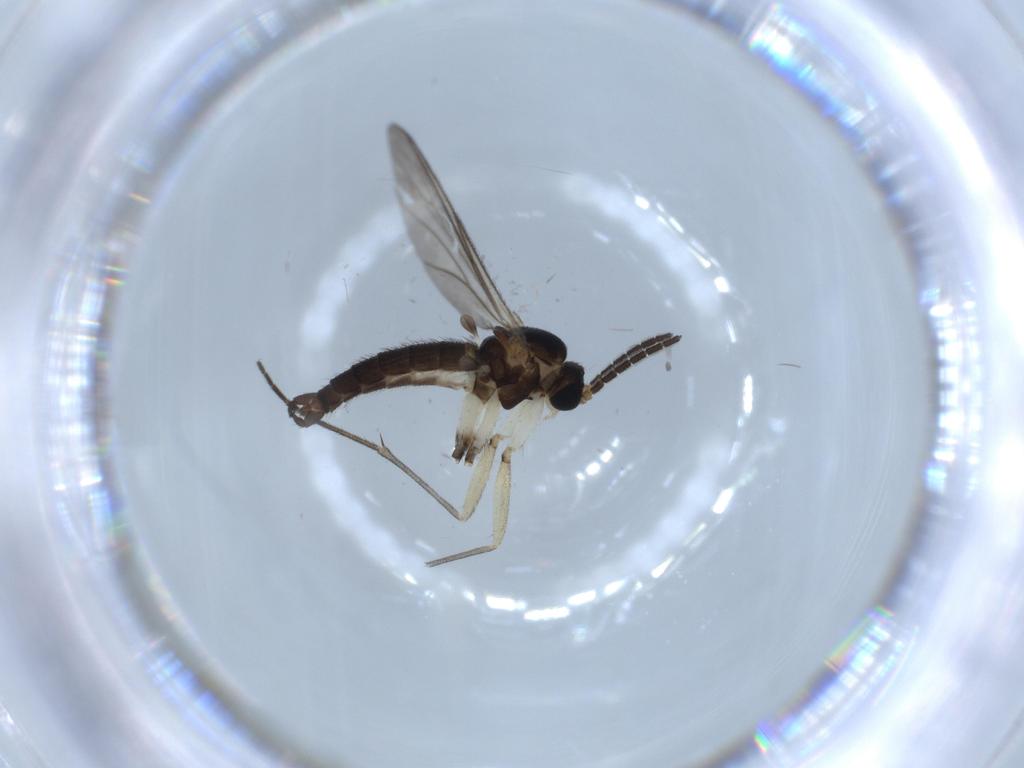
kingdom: Animalia
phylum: Arthropoda
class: Insecta
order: Diptera
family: Sciaridae
